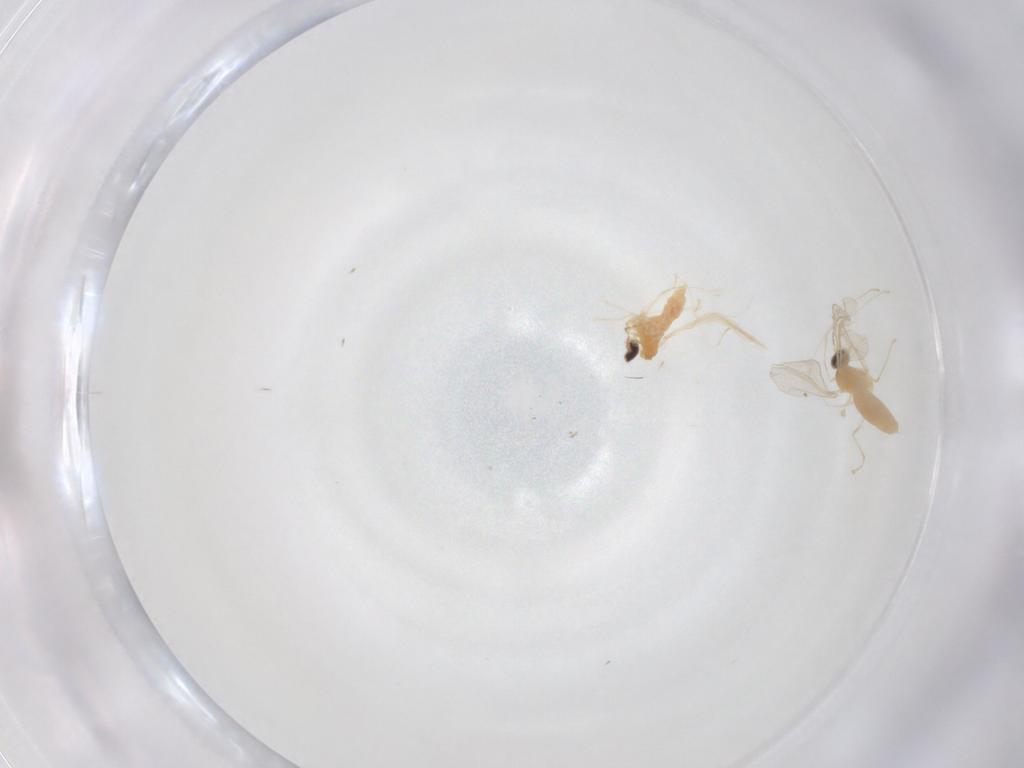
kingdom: Animalia
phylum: Arthropoda
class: Insecta
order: Diptera
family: Cecidomyiidae
